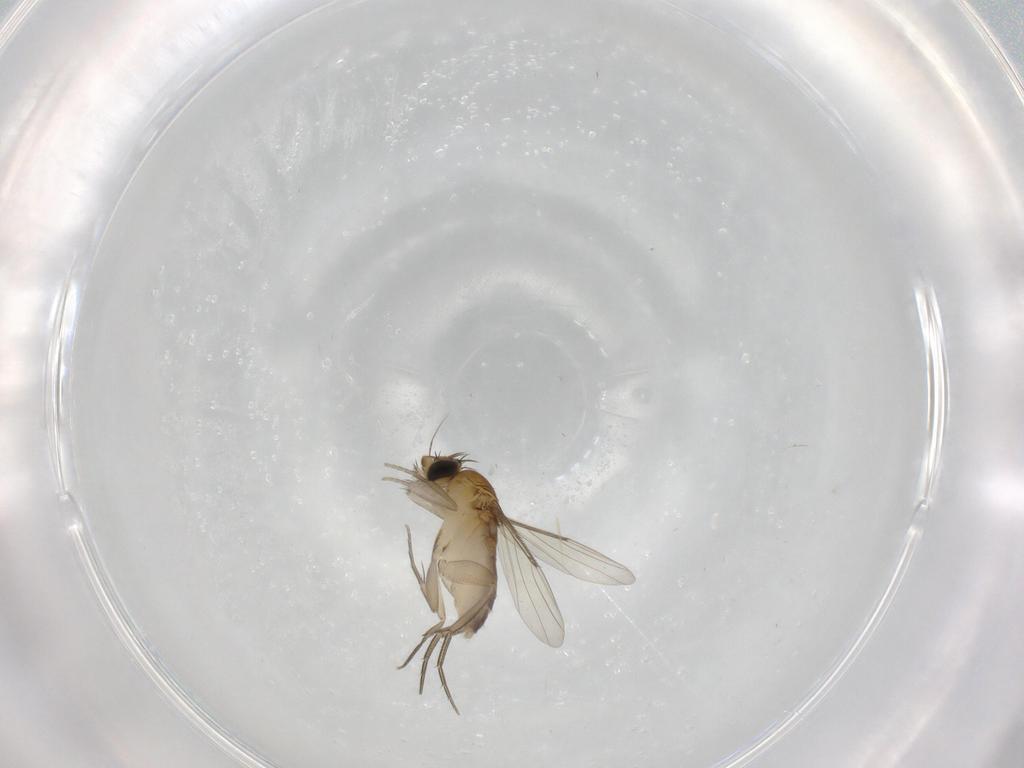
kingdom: Animalia
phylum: Arthropoda
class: Insecta
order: Diptera
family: Phoridae
